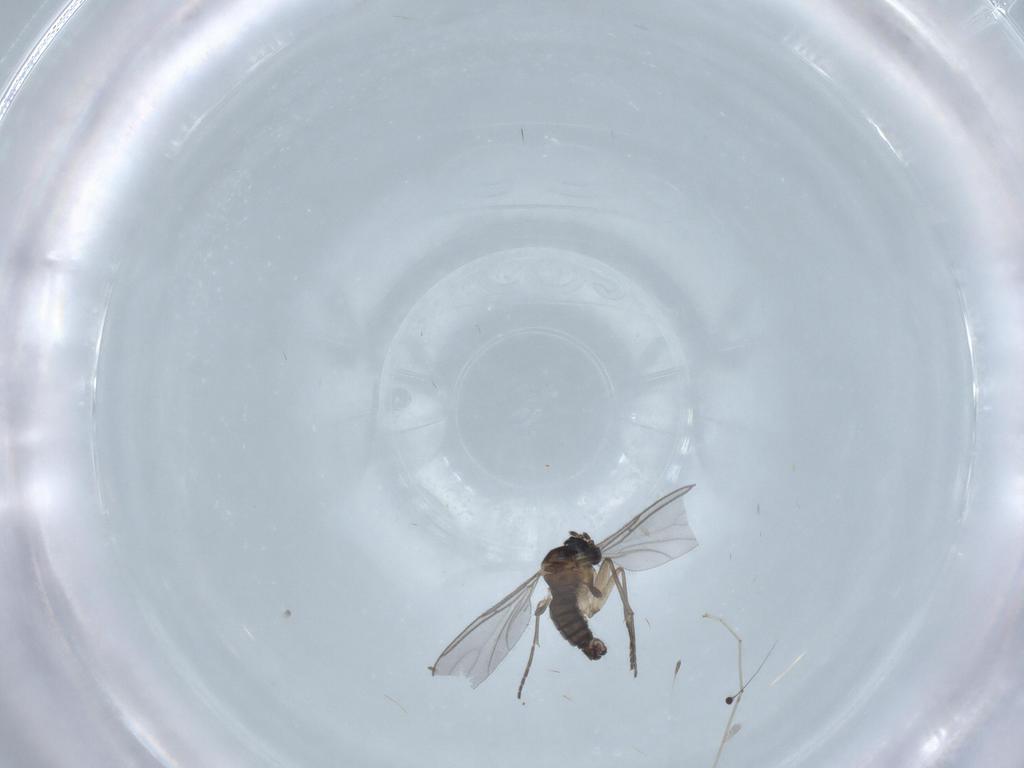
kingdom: Animalia
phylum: Arthropoda
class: Insecta
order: Diptera
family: Sciaridae
